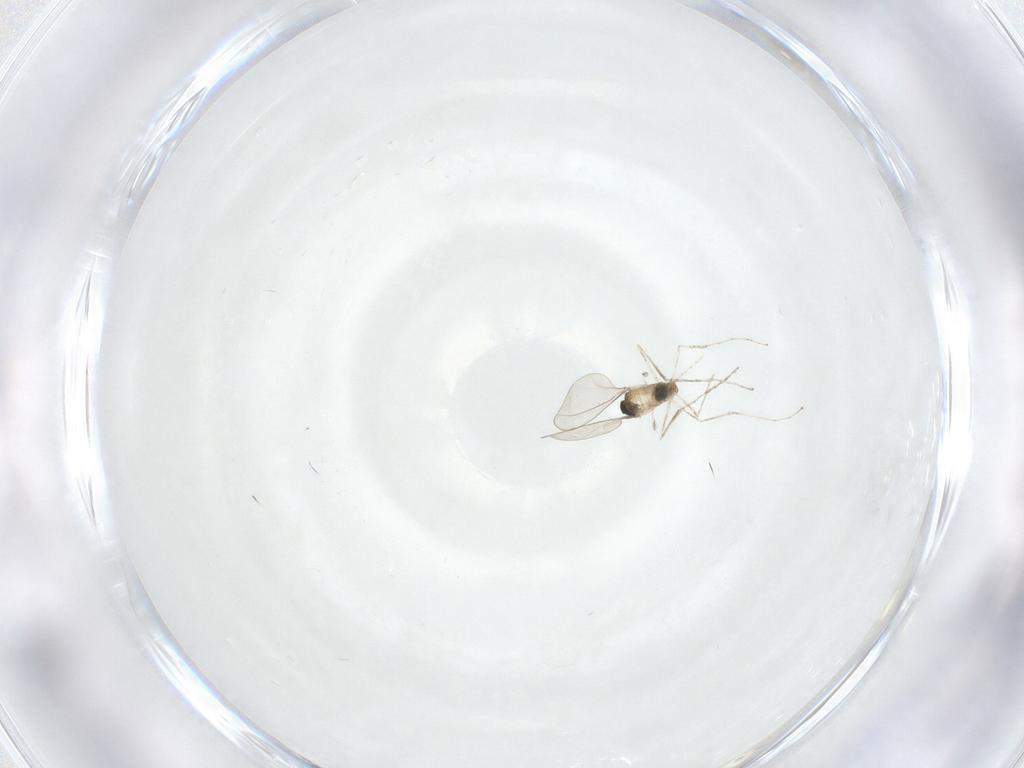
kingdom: Animalia
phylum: Arthropoda
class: Insecta
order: Diptera
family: Cecidomyiidae
